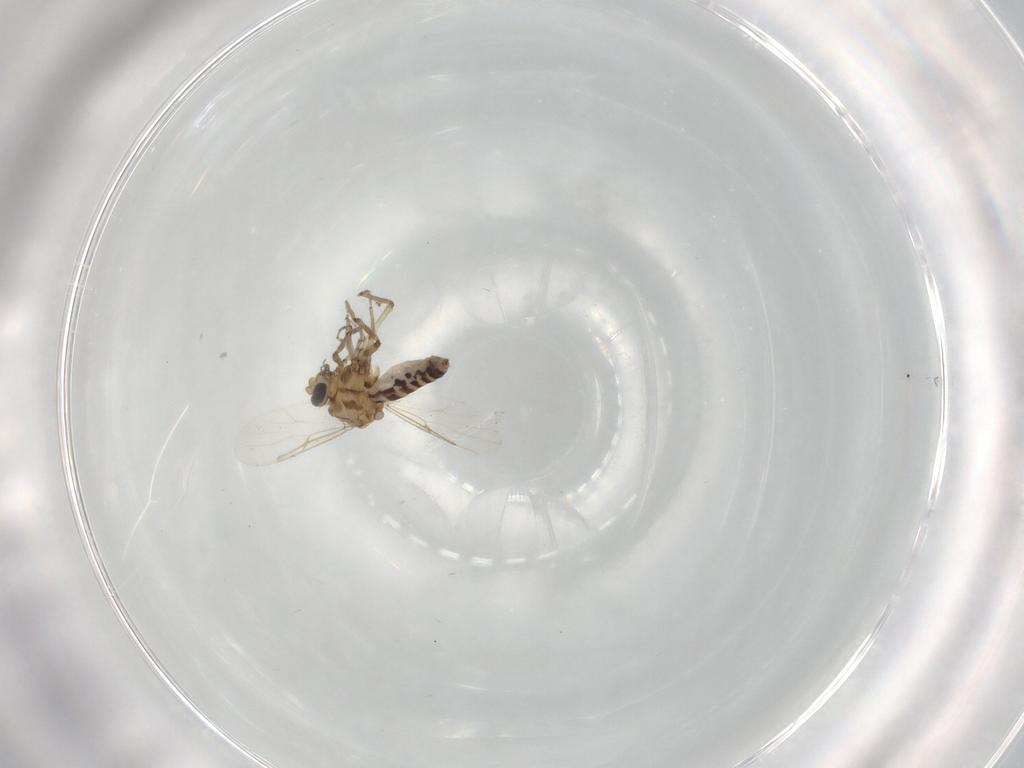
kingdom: Animalia
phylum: Arthropoda
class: Insecta
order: Diptera
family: Ceratopogonidae
